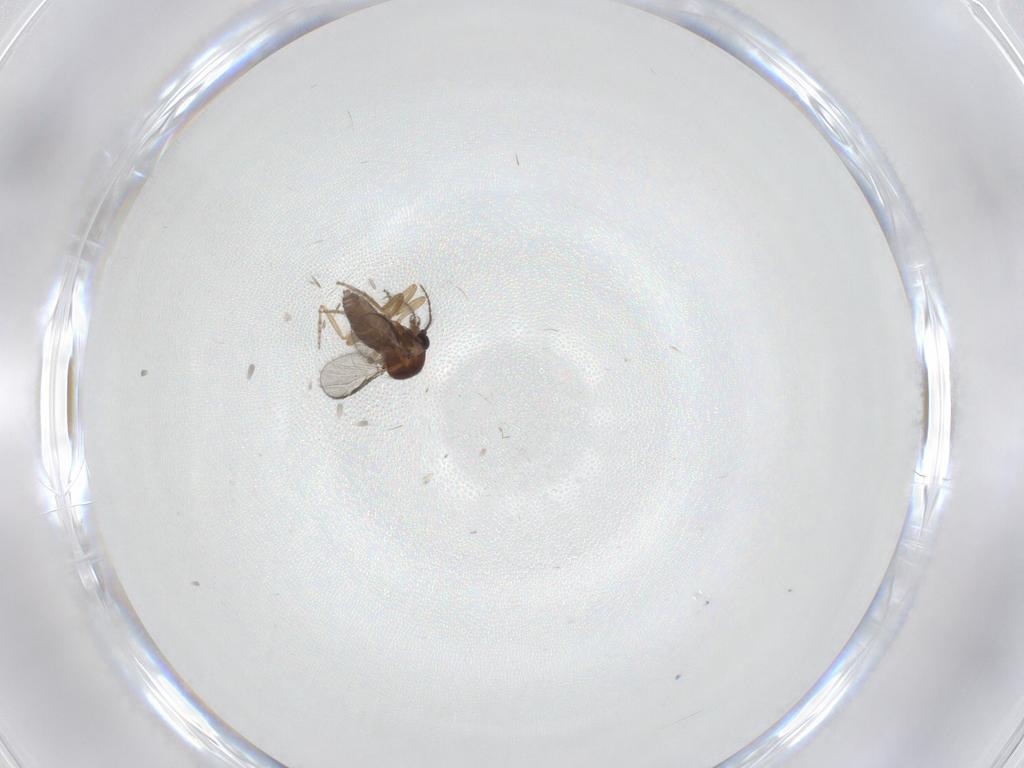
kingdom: Animalia
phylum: Arthropoda
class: Insecta
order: Diptera
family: Ceratopogonidae
